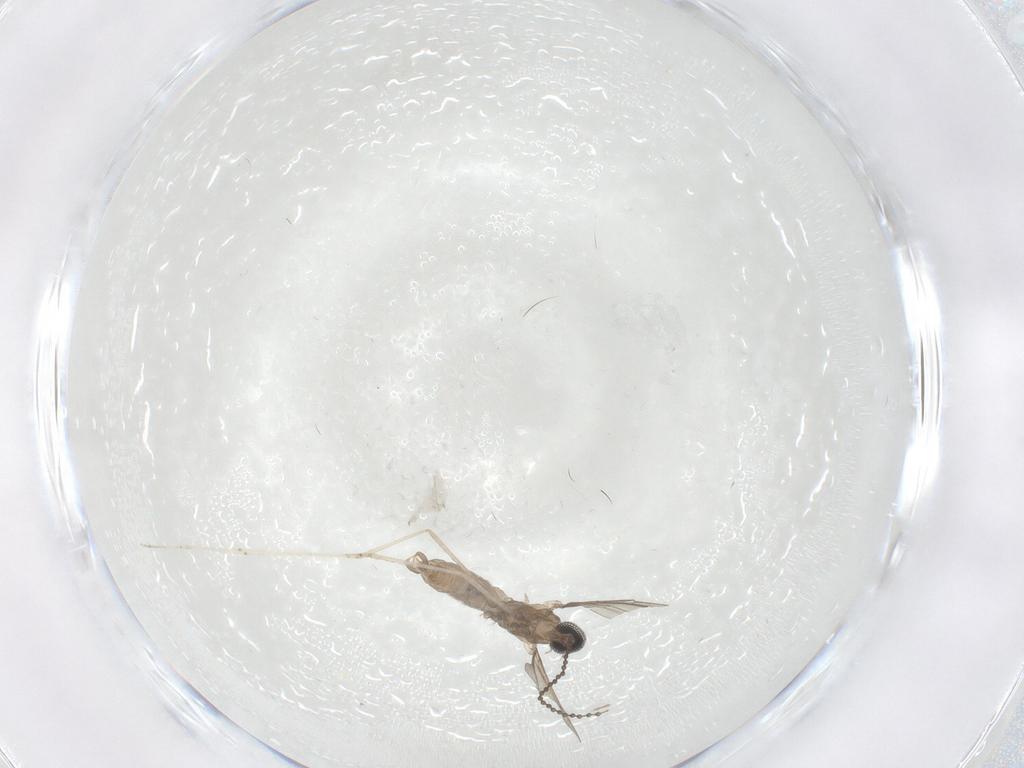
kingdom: Animalia
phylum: Arthropoda
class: Insecta
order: Diptera
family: Cecidomyiidae
